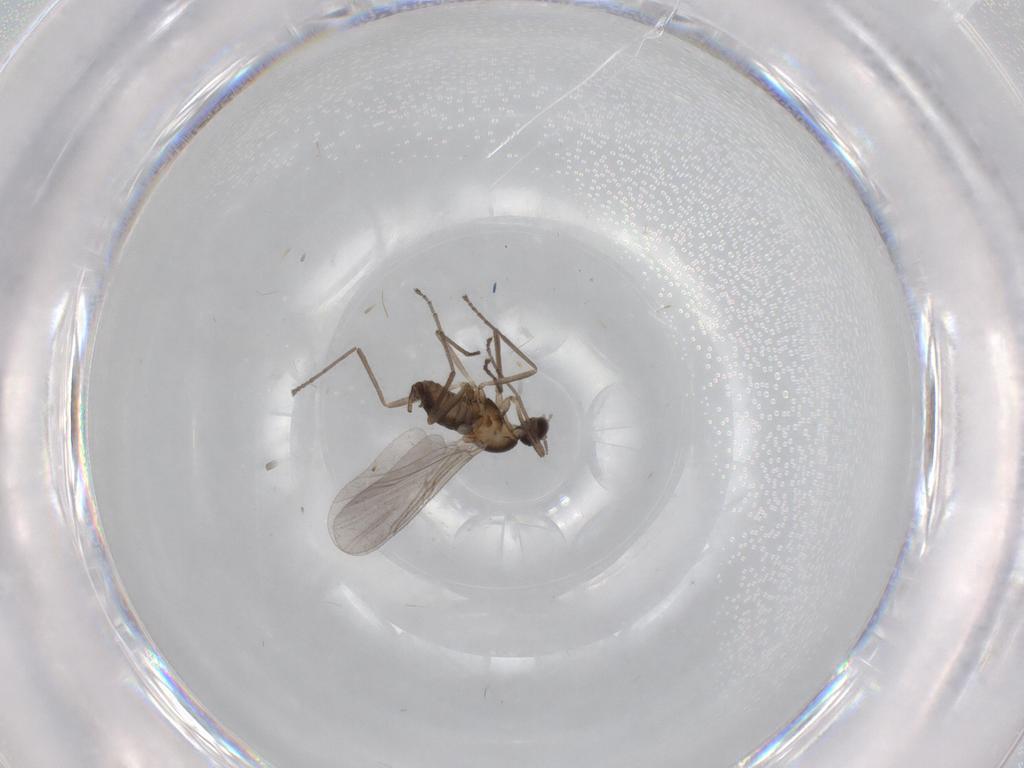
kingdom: Animalia
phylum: Arthropoda
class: Insecta
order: Diptera
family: Cecidomyiidae
